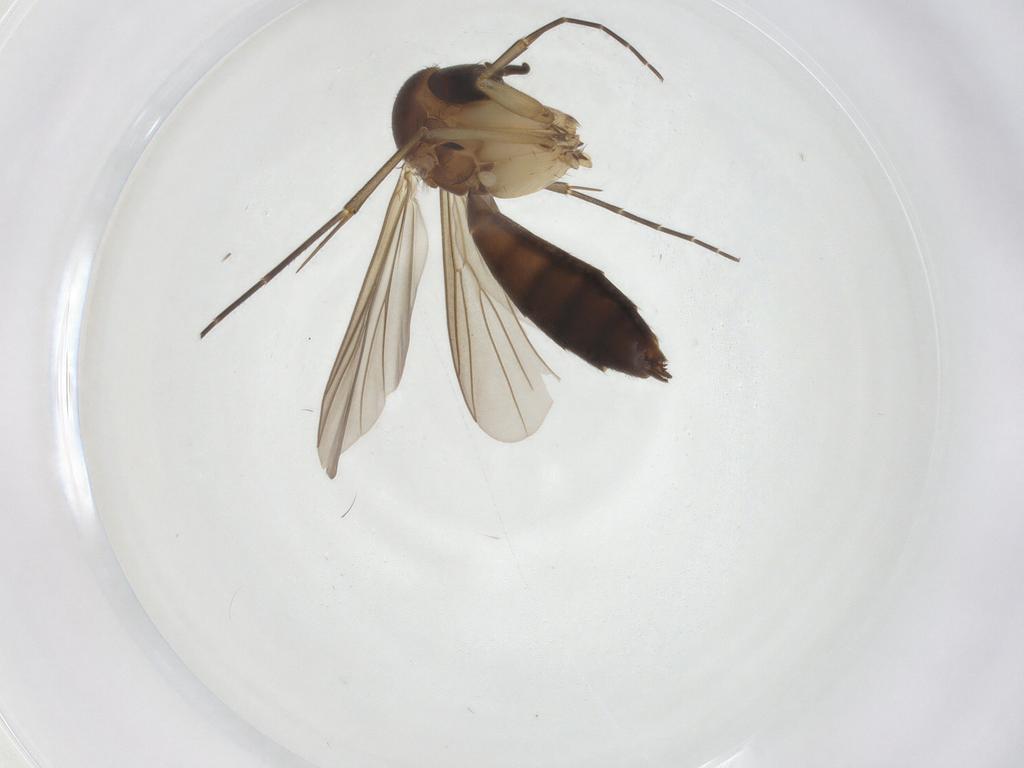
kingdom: Animalia
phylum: Arthropoda
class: Insecta
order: Diptera
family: Mycetophilidae
